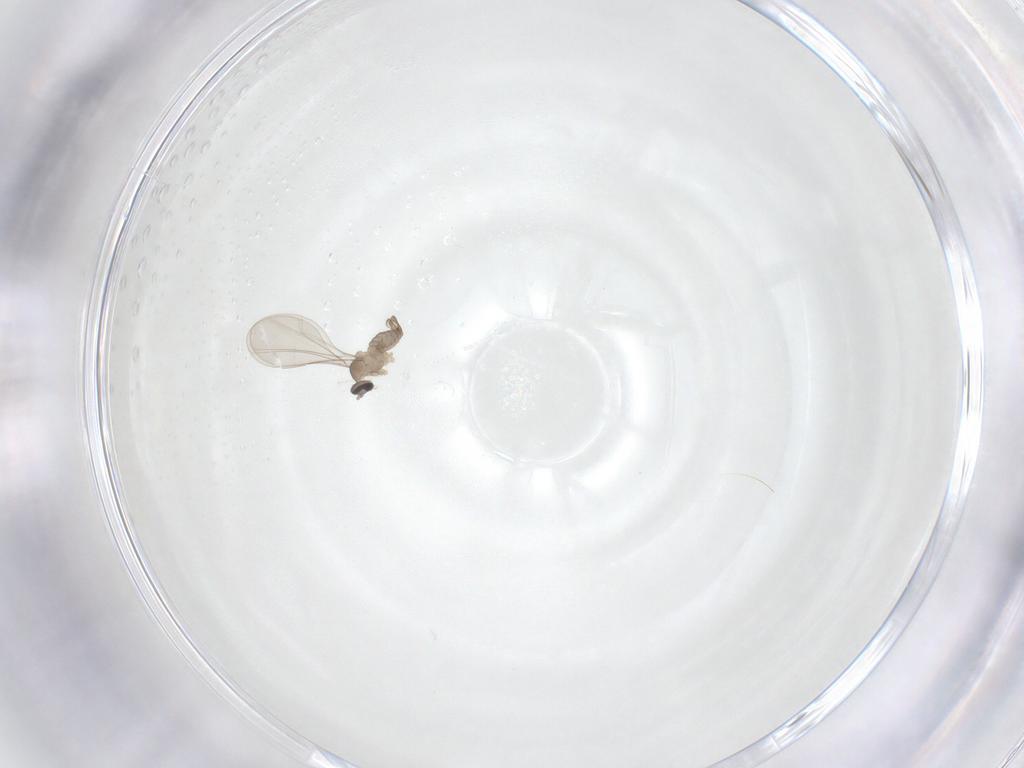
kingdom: Animalia
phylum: Arthropoda
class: Insecta
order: Diptera
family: Cecidomyiidae
